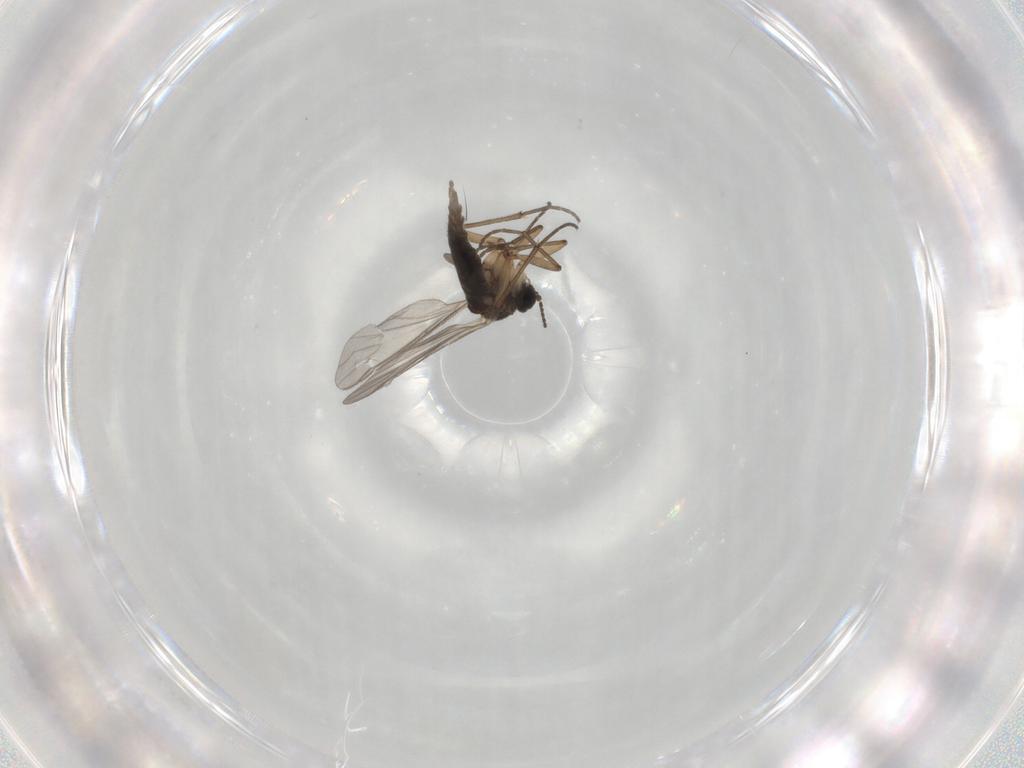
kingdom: Animalia
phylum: Arthropoda
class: Insecta
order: Diptera
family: Sciaridae
